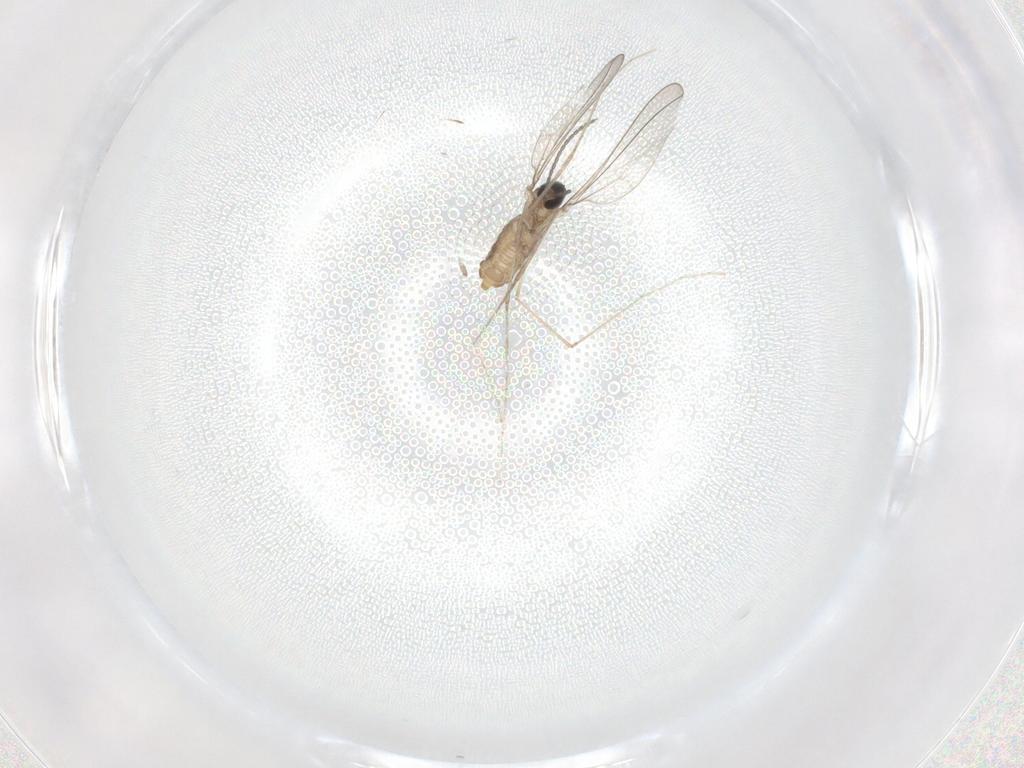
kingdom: Animalia
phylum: Arthropoda
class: Insecta
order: Diptera
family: Cecidomyiidae
